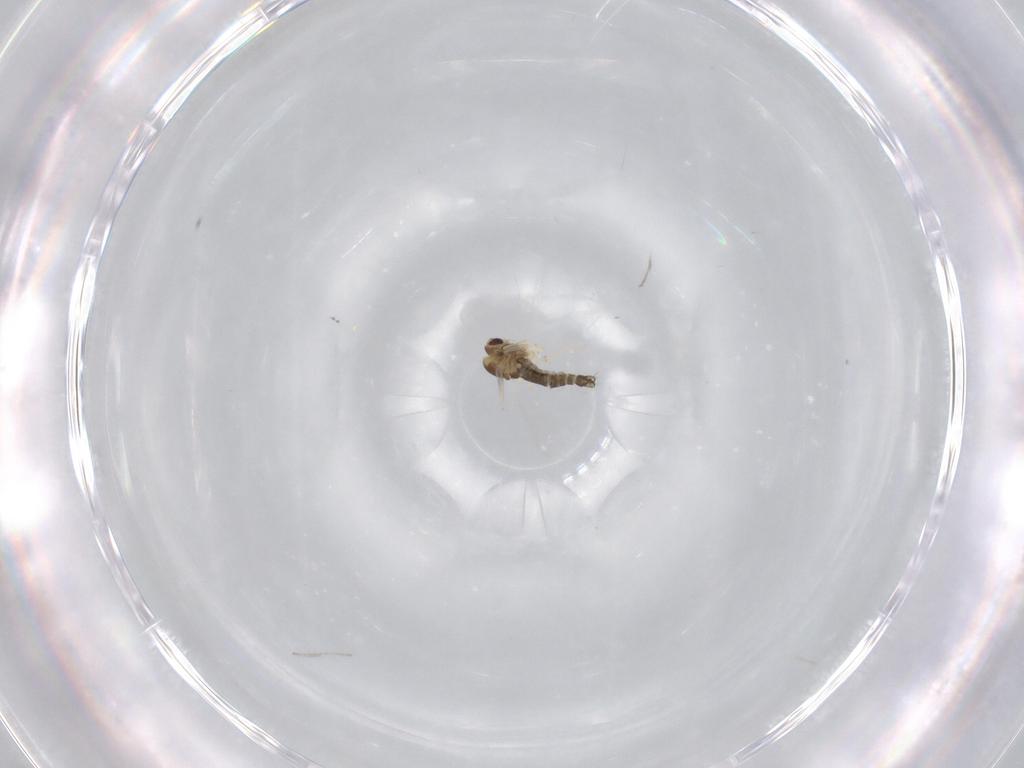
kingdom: Animalia
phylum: Arthropoda
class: Insecta
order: Diptera
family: Chironomidae
